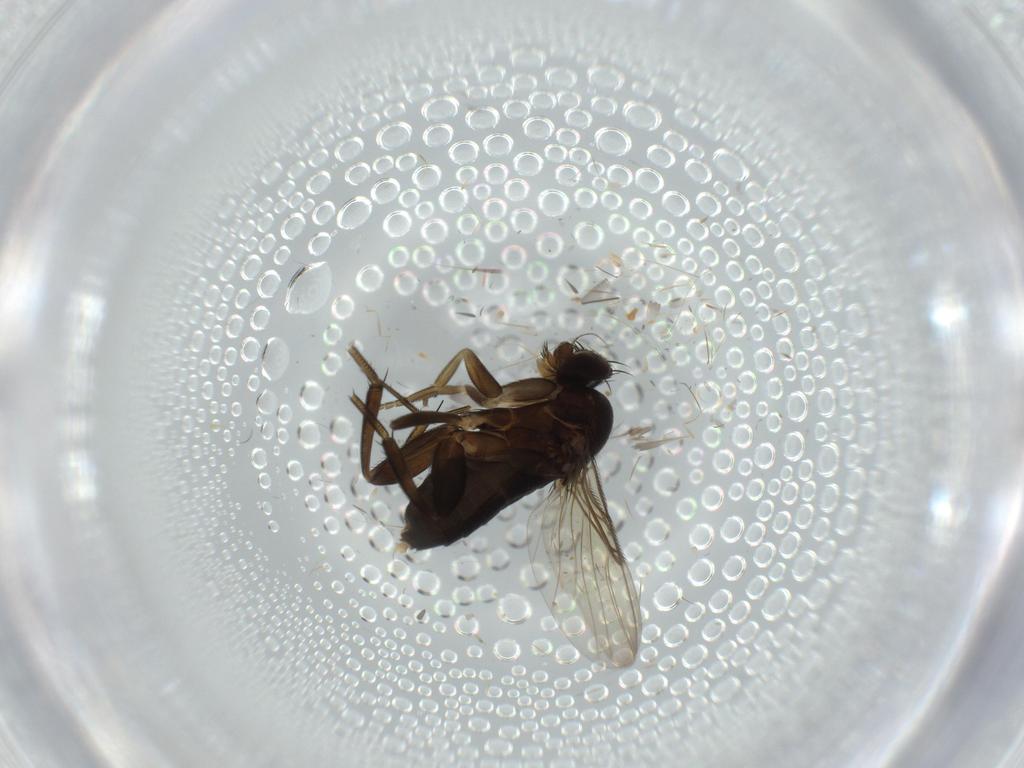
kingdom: Animalia
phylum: Arthropoda
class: Insecta
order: Diptera
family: Phoridae
